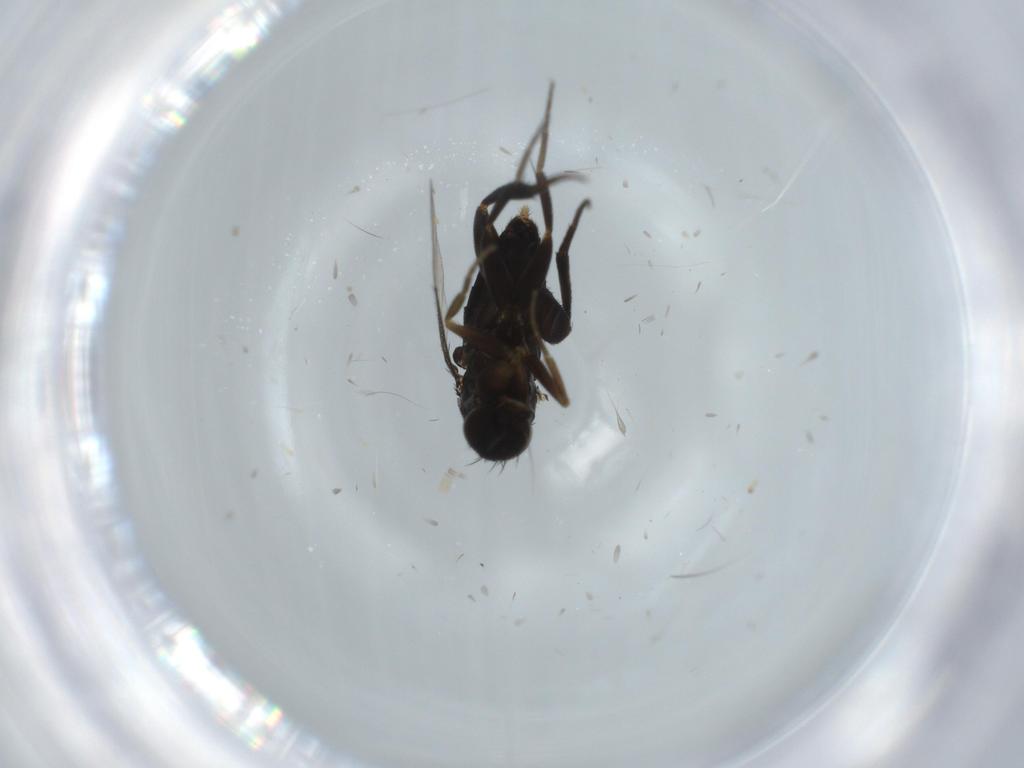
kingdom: Animalia
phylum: Arthropoda
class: Insecta
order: Diptera
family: Phoridae
